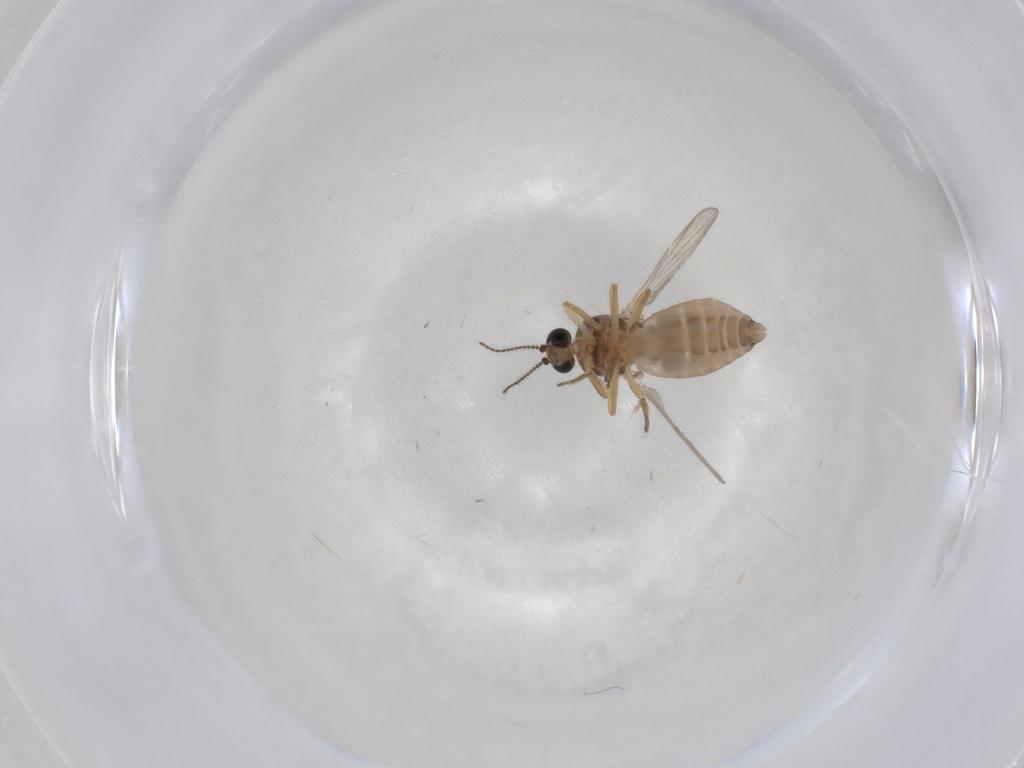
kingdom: Animalia
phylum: Arthropoda
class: Insecta
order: Diptera
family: Ceratopogonidae
